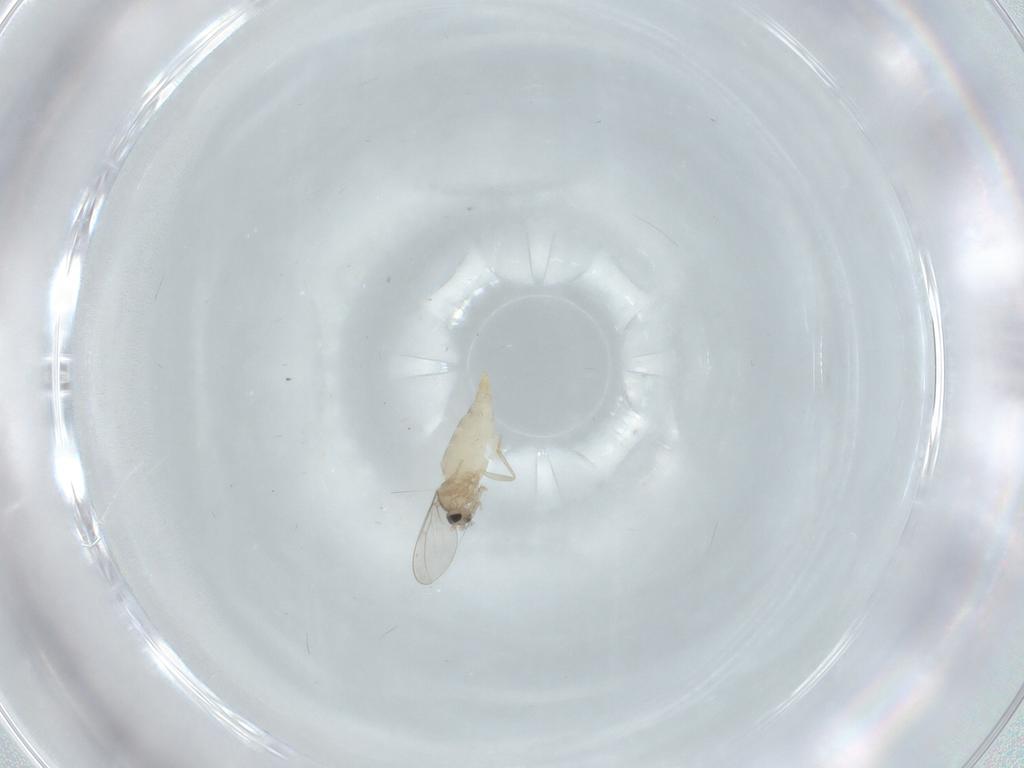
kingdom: Animalia
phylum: Arthropoda
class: Insecta
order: Diptera
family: Cecidomyiidae
